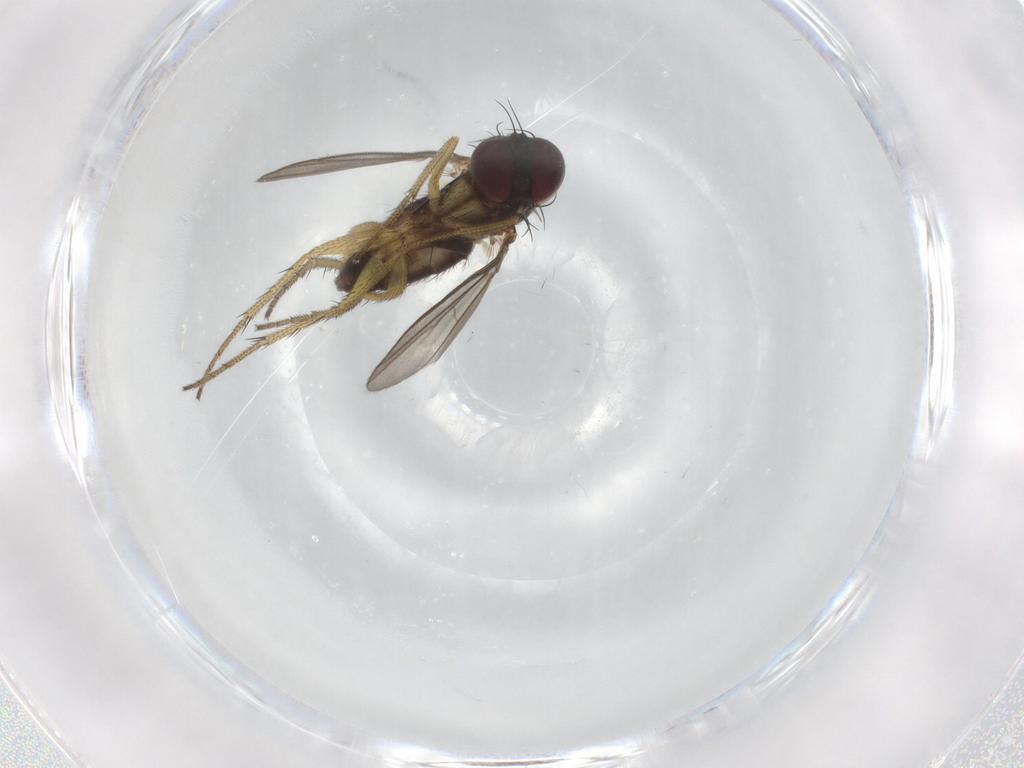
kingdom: Animalia
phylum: Arthropoda
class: Insecta
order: Diptera
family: Dolichopodidae
